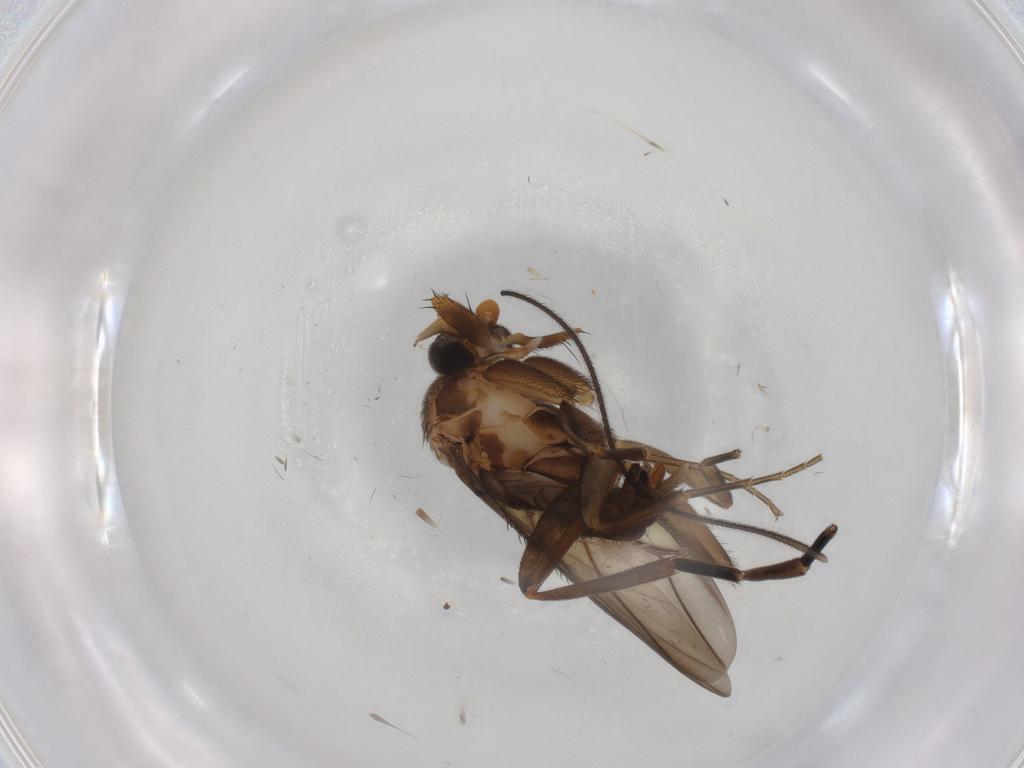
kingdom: Animalia
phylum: Arthropoda
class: Insecta
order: Diptera
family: Phoridae
